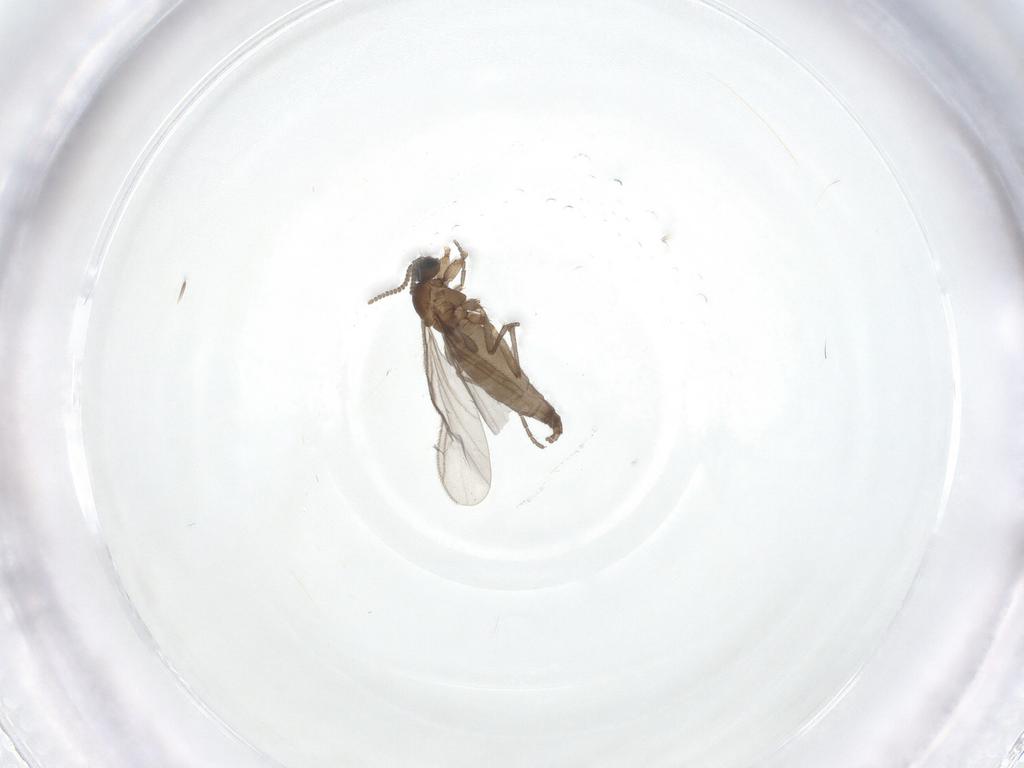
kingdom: Animalia
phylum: Arthropoda
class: Insecta
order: Diptera
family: Sciaridae
